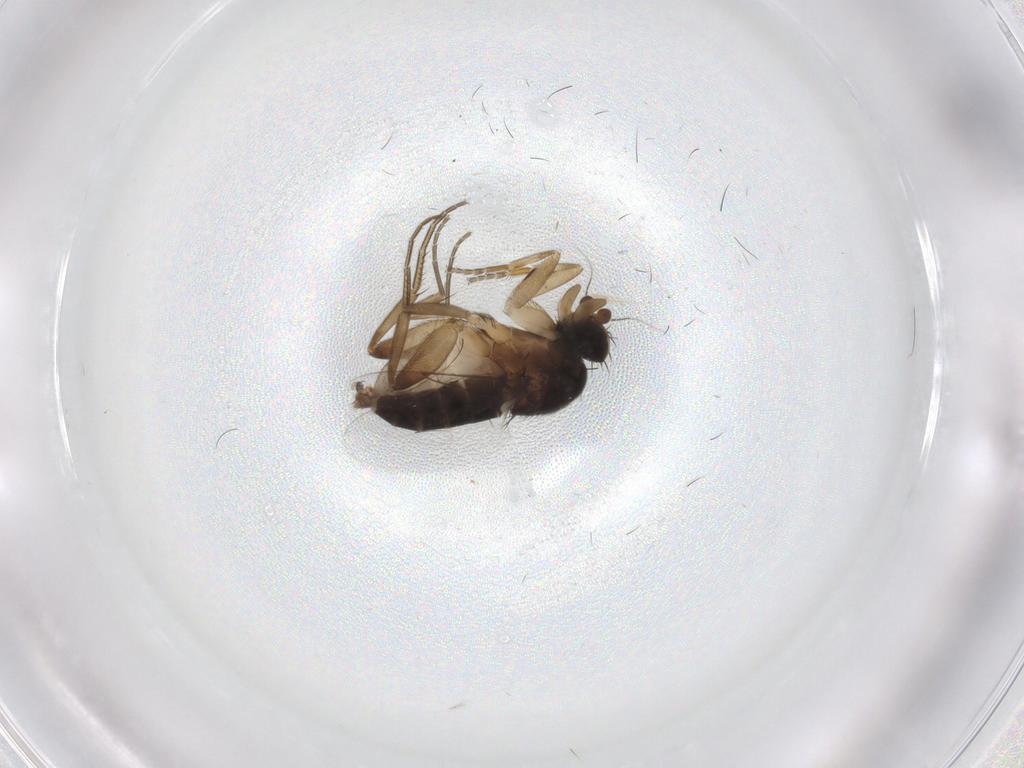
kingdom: Animalia
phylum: Arthropoda
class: Insecta
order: Diptera
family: Phoridae
